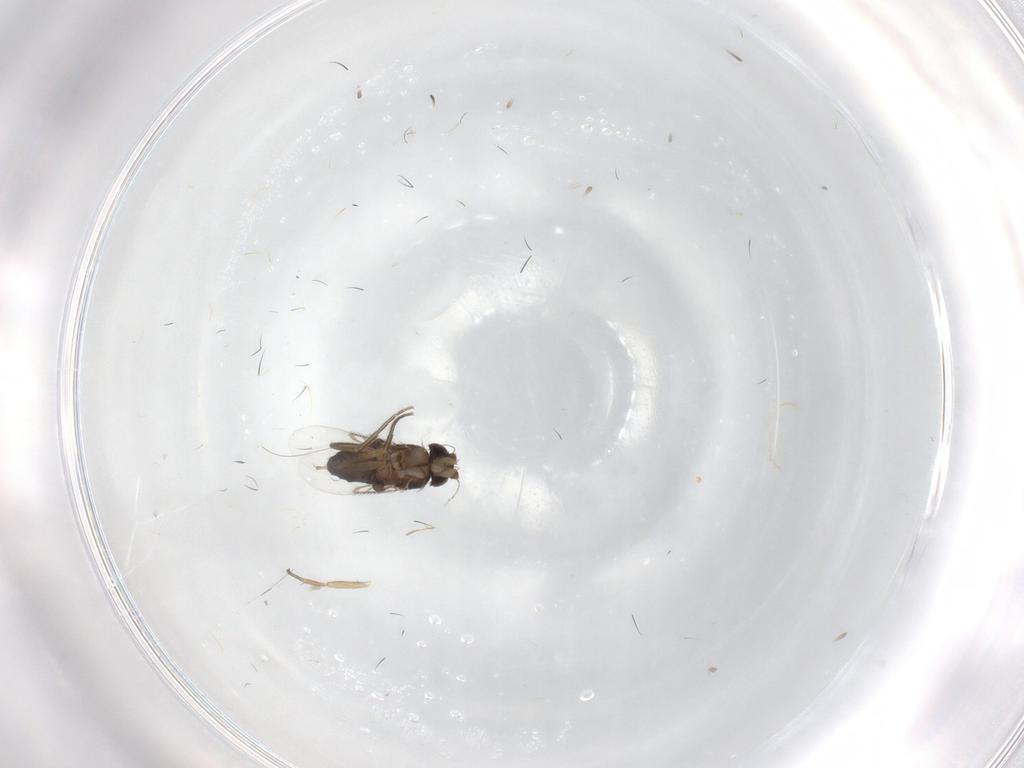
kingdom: Animalia
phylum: Arthropoda
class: Insecta
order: Diptera
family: Phoridae
